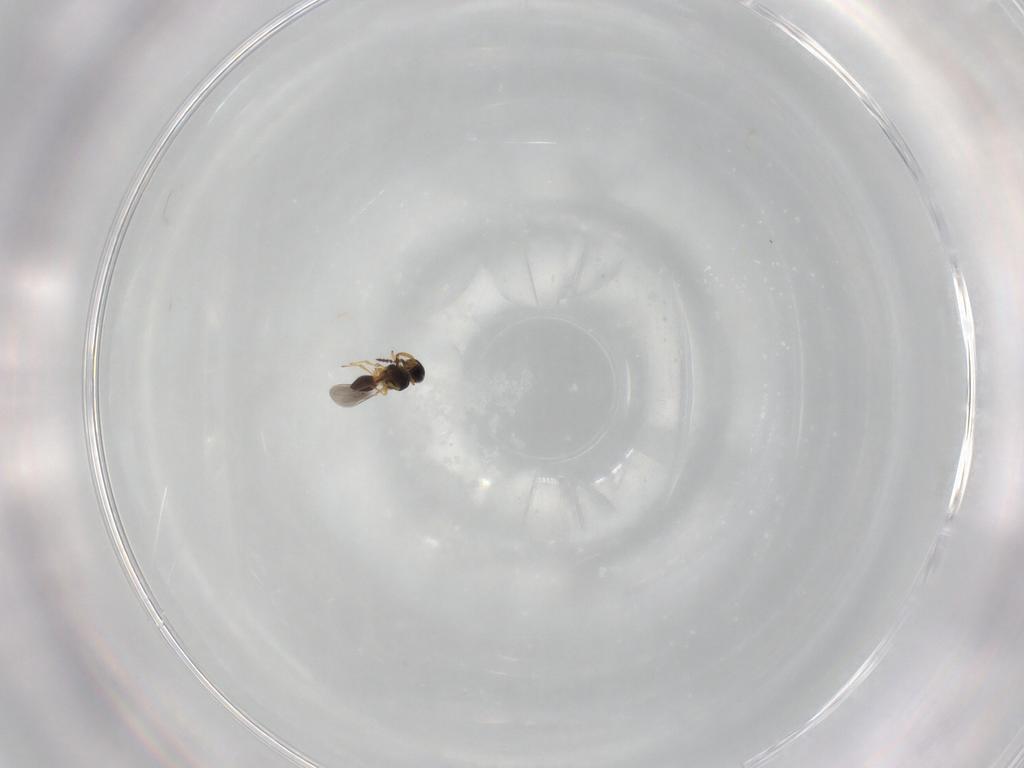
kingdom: Animalia
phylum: Arthropoda
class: Insecta
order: Hymenoptera
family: Platygastridae
